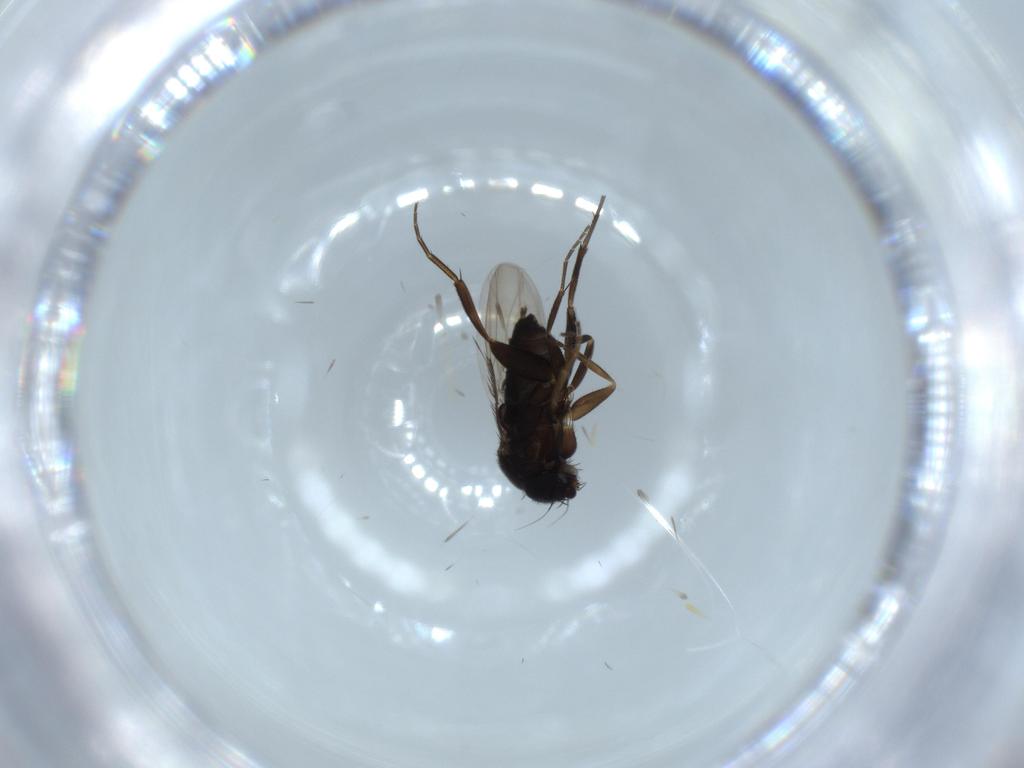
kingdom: Animalia
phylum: Arthropoda
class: Insecta
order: Diptera
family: Phoridae
